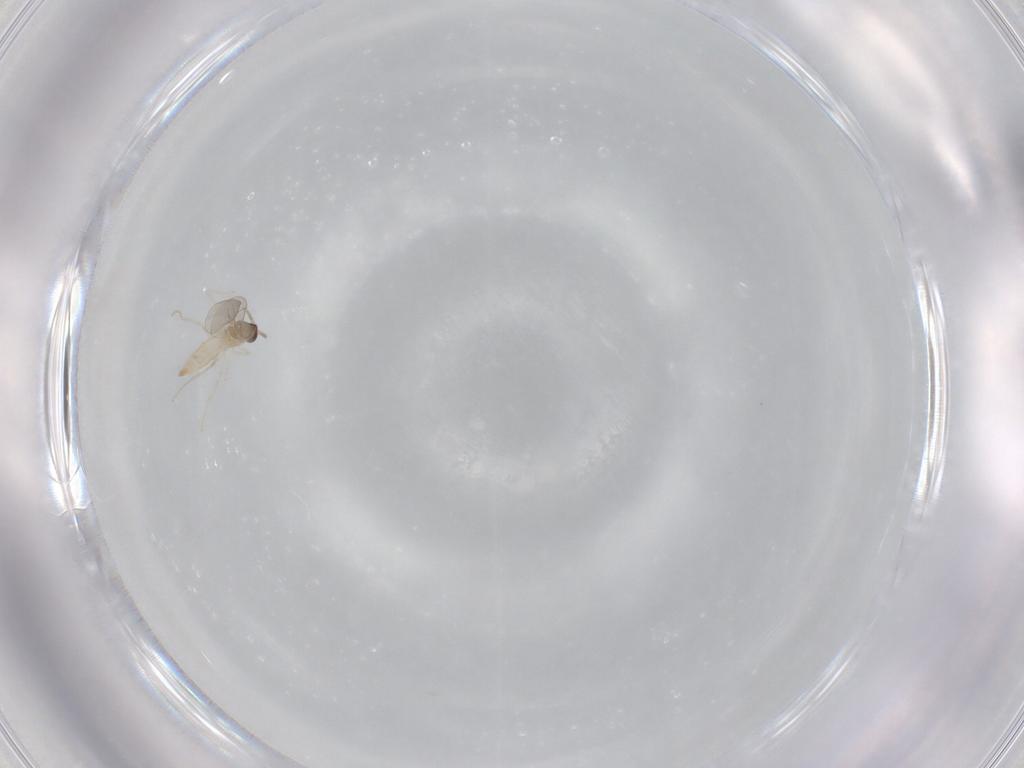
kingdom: Animalia
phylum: Arthropoda
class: Insecta
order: Diptera
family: Cecidomyiidae
